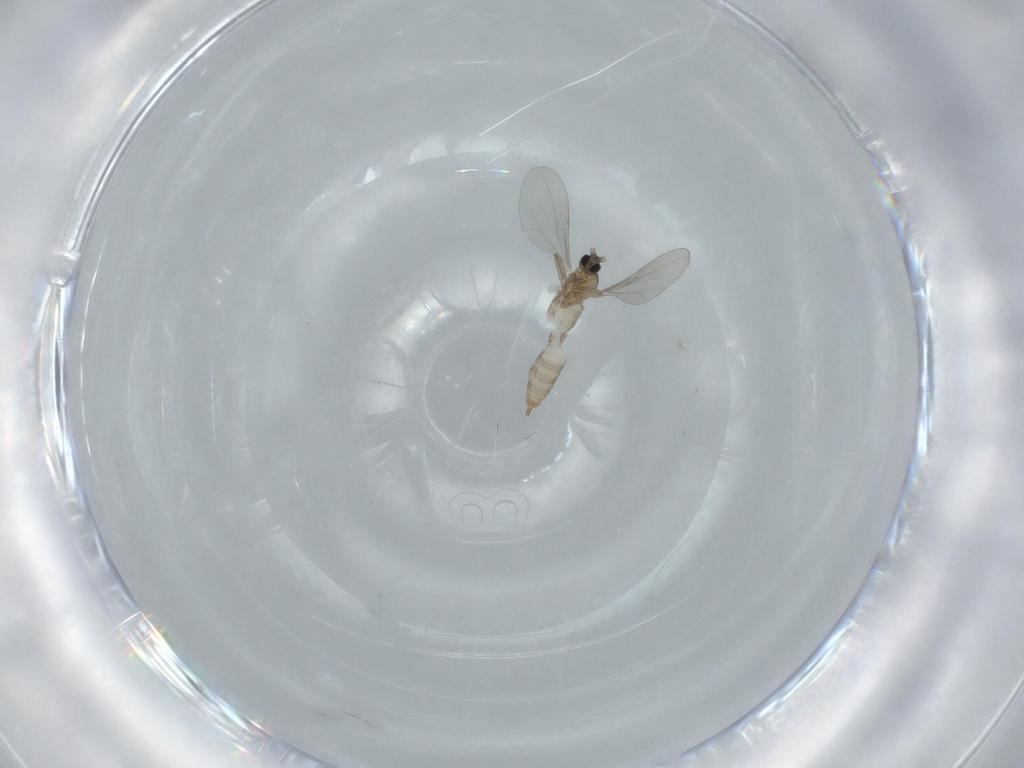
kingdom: Animalia
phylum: Arthropoda
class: Insecta
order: Diptera
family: Cecidomyiidae
